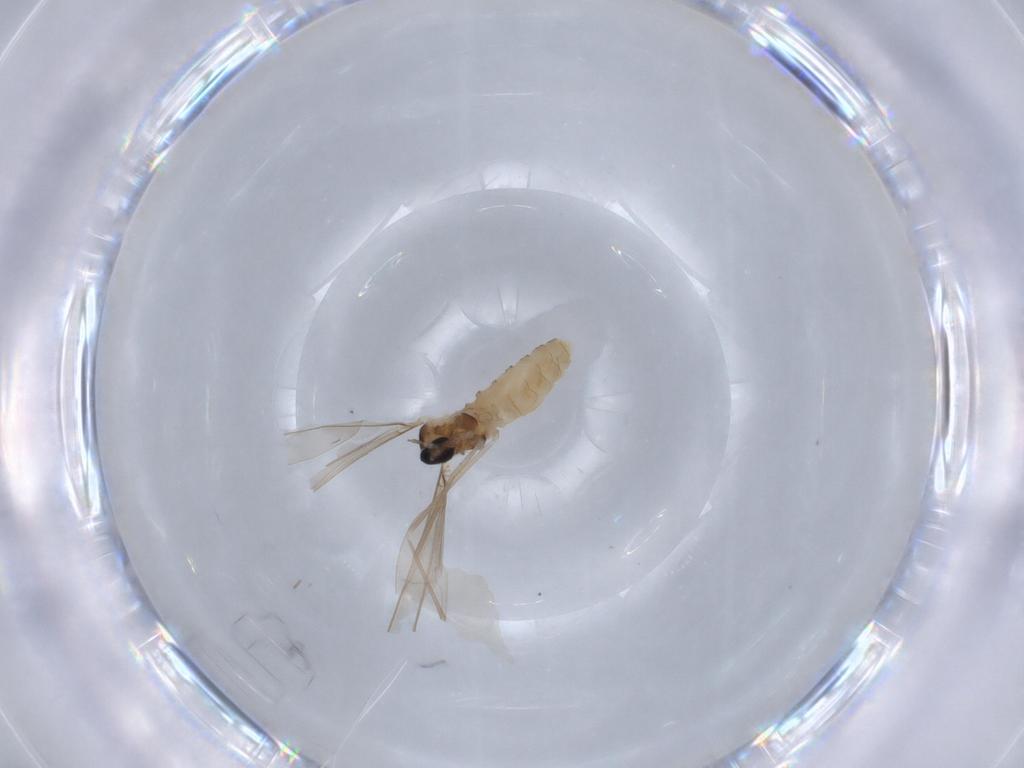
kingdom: Animalia
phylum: Arthropoda
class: Insecta
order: Diptera
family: Cecidomyiidae
